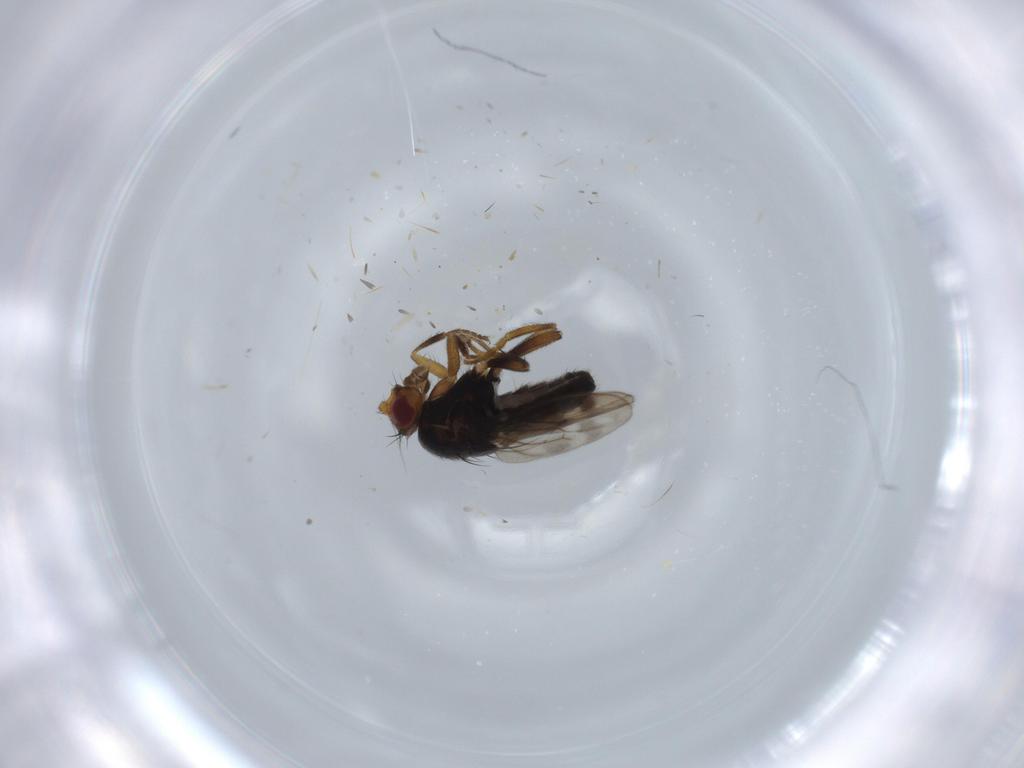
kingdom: Animalia
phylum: Arthropoda
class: Insecta
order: Diptera
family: Sphaeroceridae
